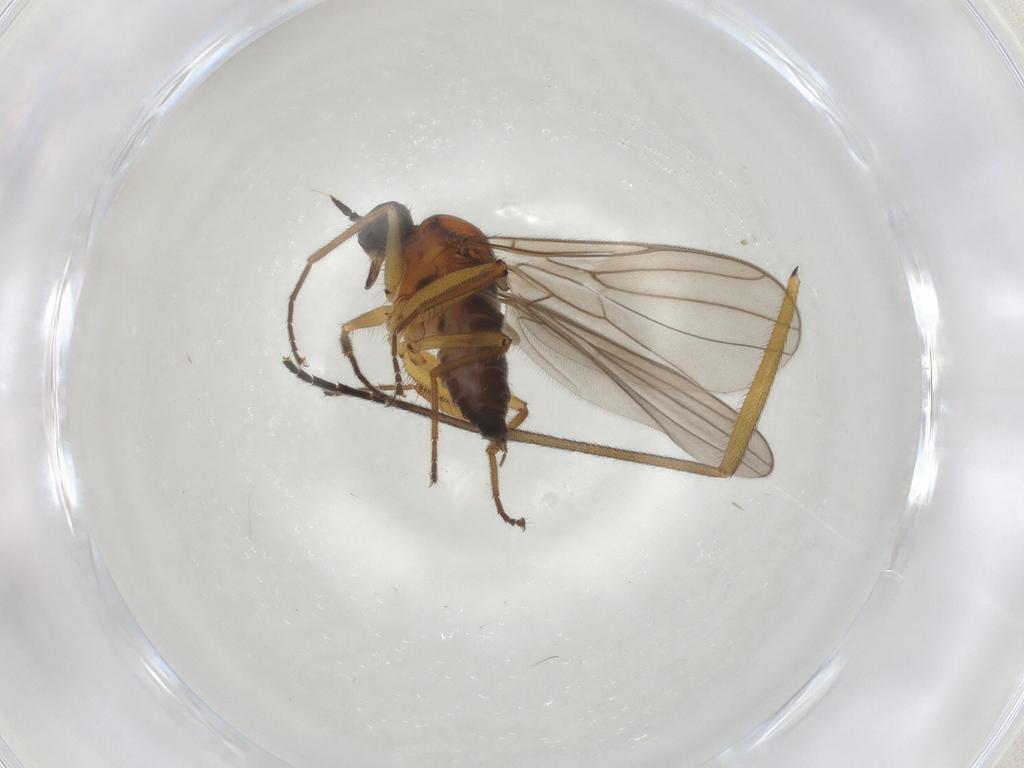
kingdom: Animalia
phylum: Arthropoda
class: Insecta
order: Diptera
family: Hybotidae
